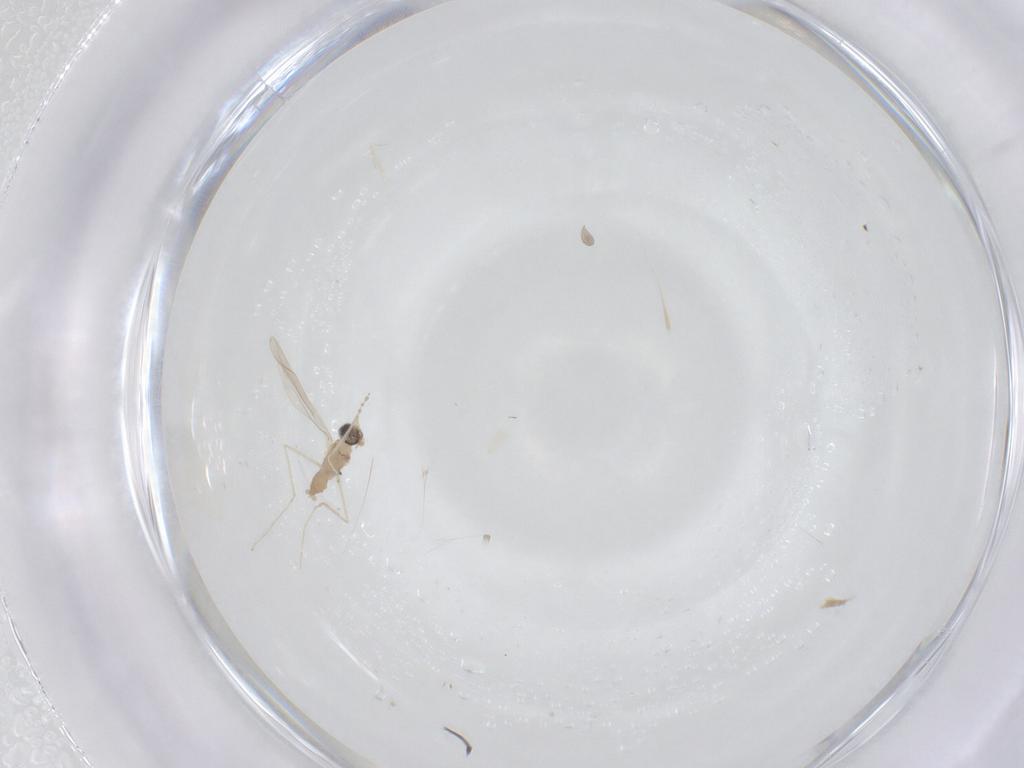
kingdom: Animalia
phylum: Arthropoda
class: Insecta
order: Diptera
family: Cecidomyiidae
